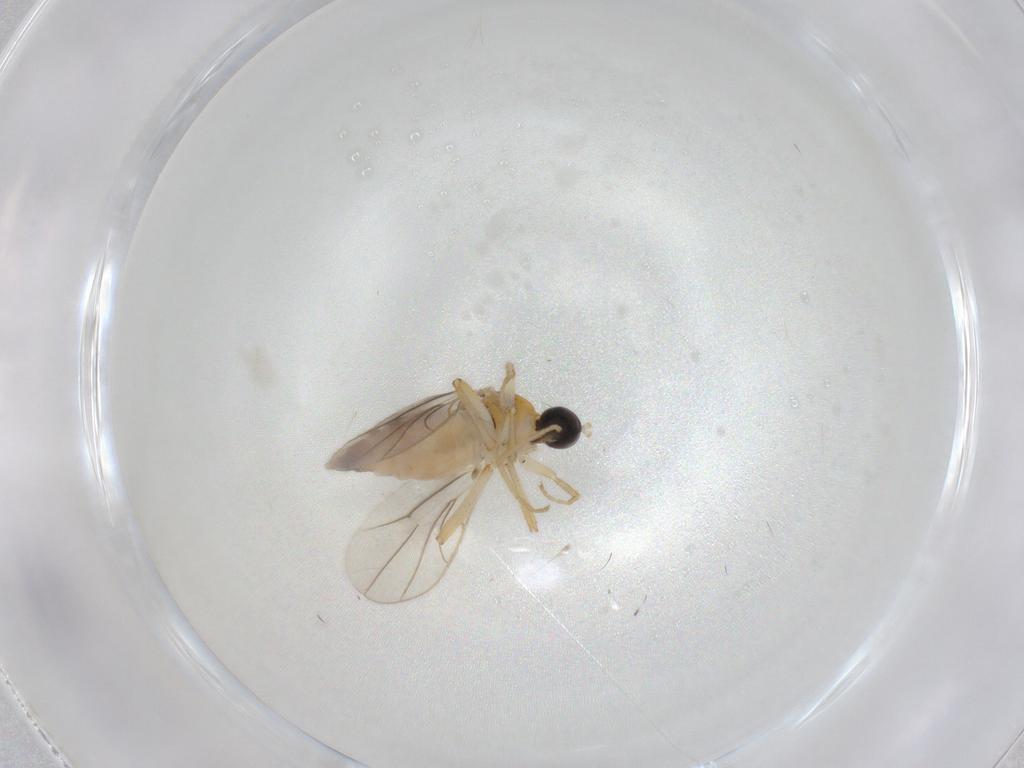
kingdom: Animalia
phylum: Arthropoda
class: Insecta
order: Diptera
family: Hybotidae
